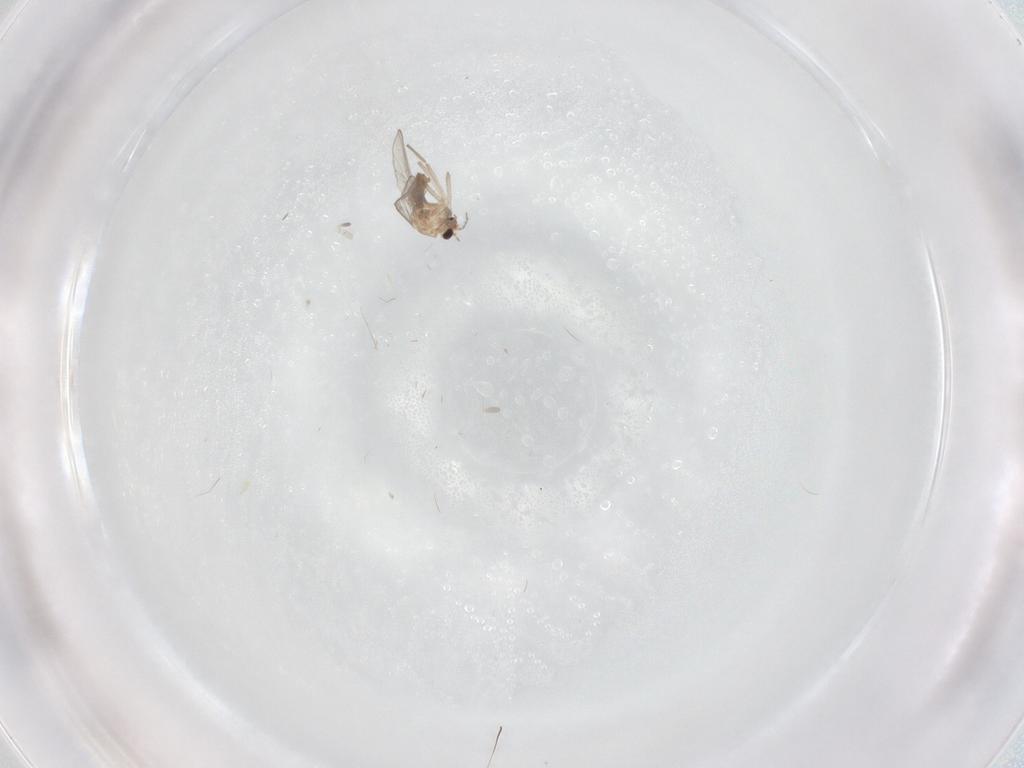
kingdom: Animalia
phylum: Arthropoda
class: Insecta
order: Diptera
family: Chironomidae
